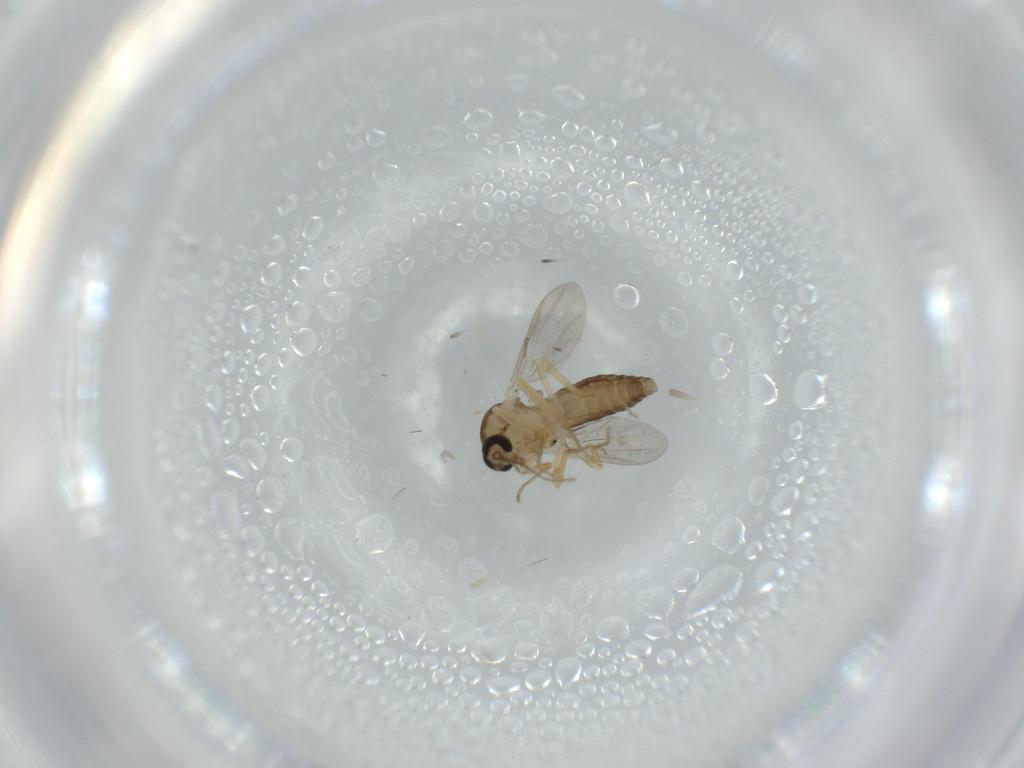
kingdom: Animalia
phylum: Arthropoda
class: Insecta
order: Diptera
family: Ceratopogonidae
